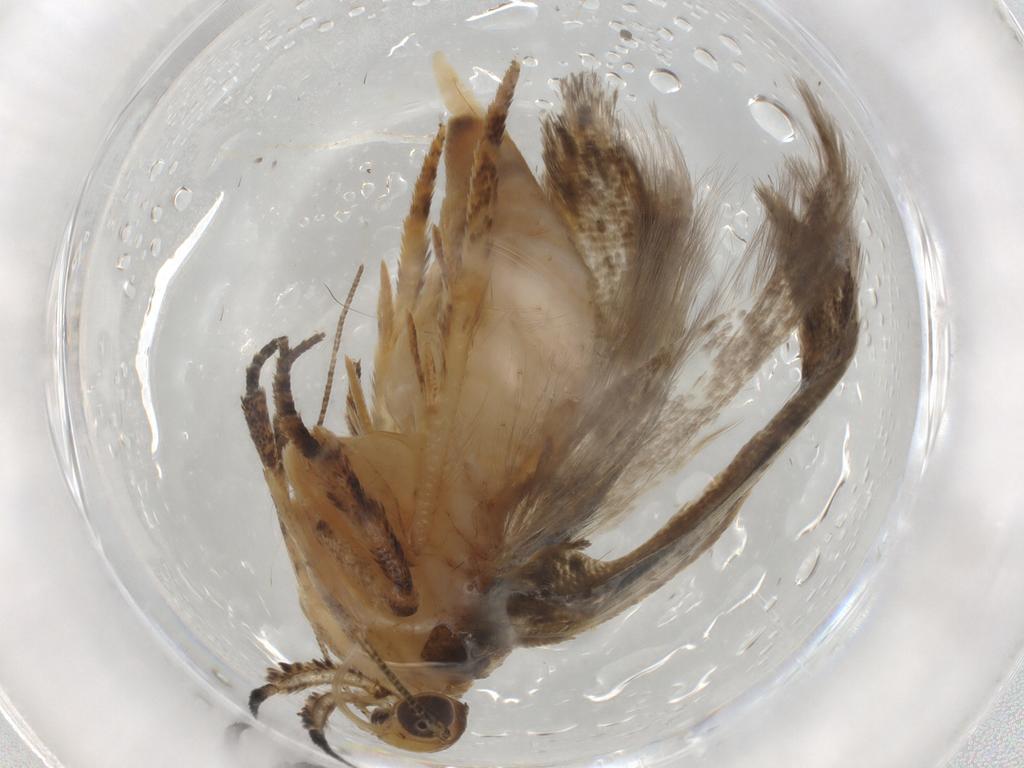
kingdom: Animalia
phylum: Arthropoda
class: Insecta
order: Lepidoptera
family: Gelechiidae
